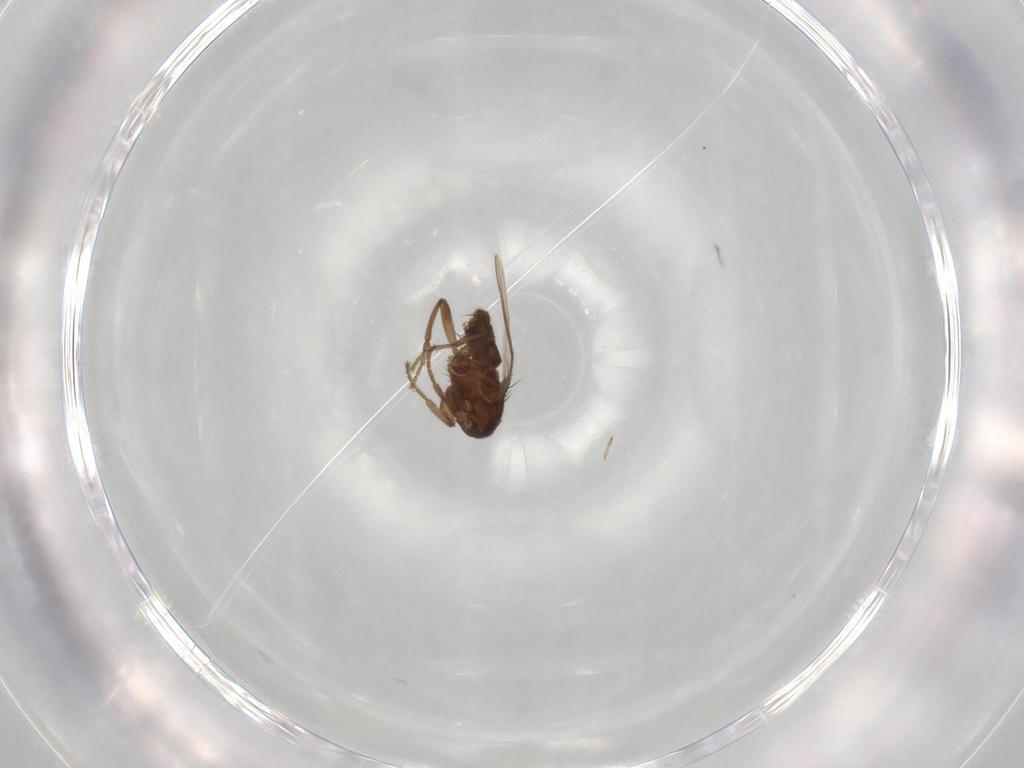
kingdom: Animalia
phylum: Arthropoda
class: Insecta
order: Diptera
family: Sphaeroceridae
